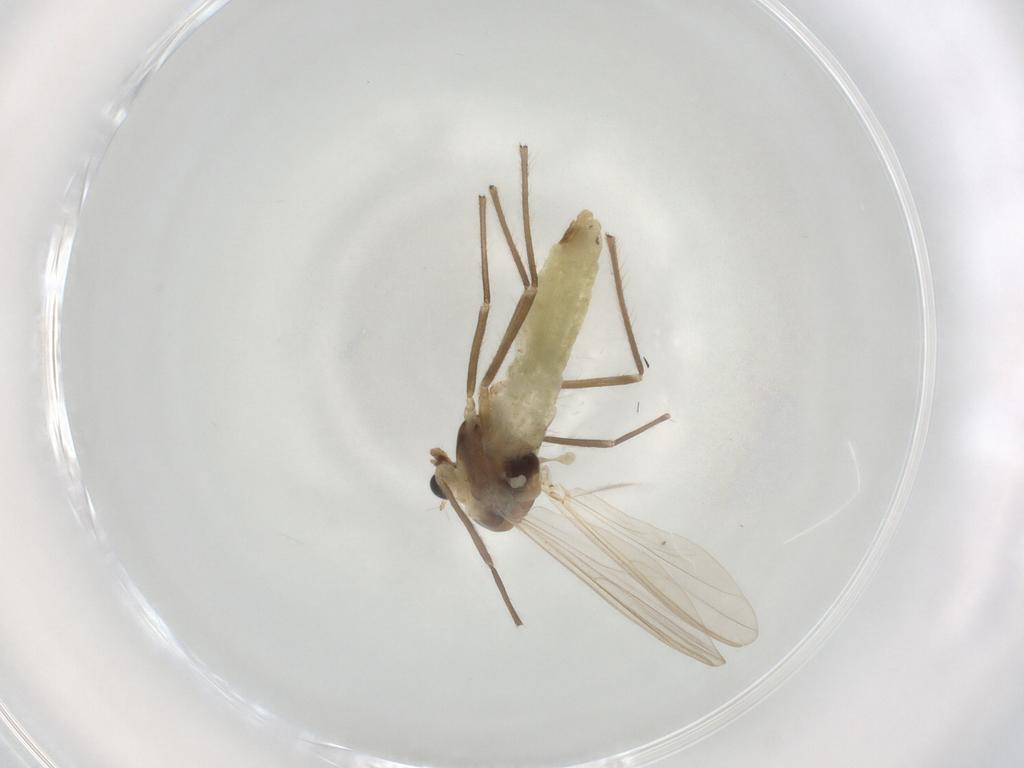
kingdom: Animalia
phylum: Arthropoda
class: Insecta
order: Diptera
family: Chironomidae
